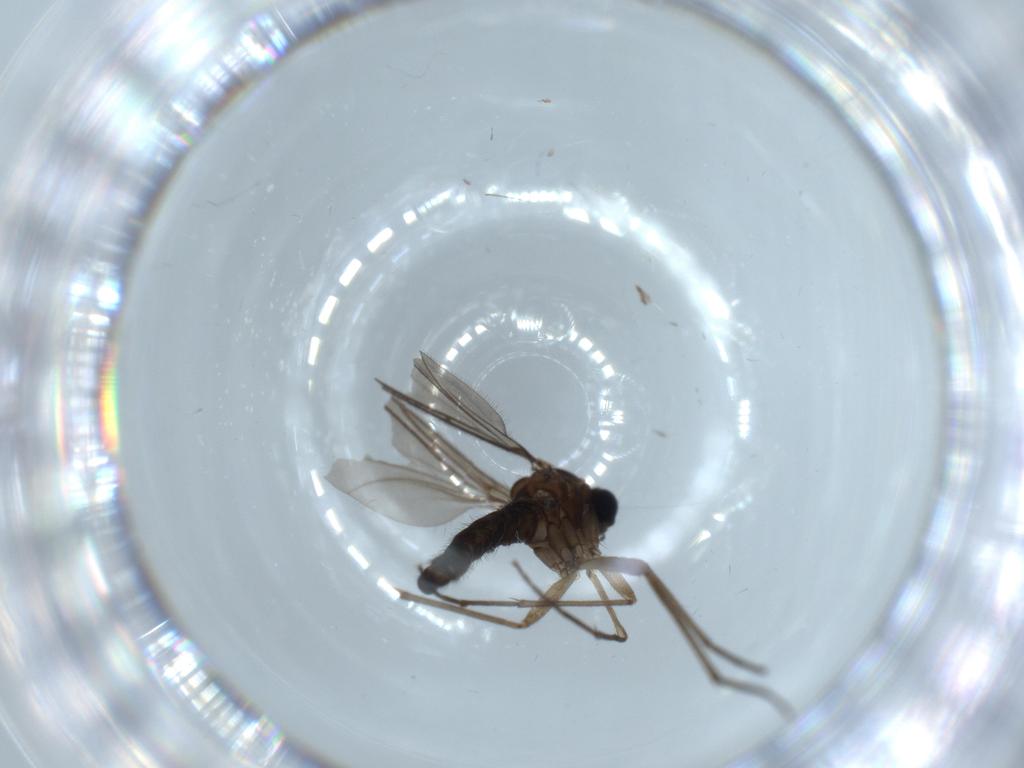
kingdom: Animalia
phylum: Arthropoda
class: Insecta
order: Diptera
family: Sciaridae
